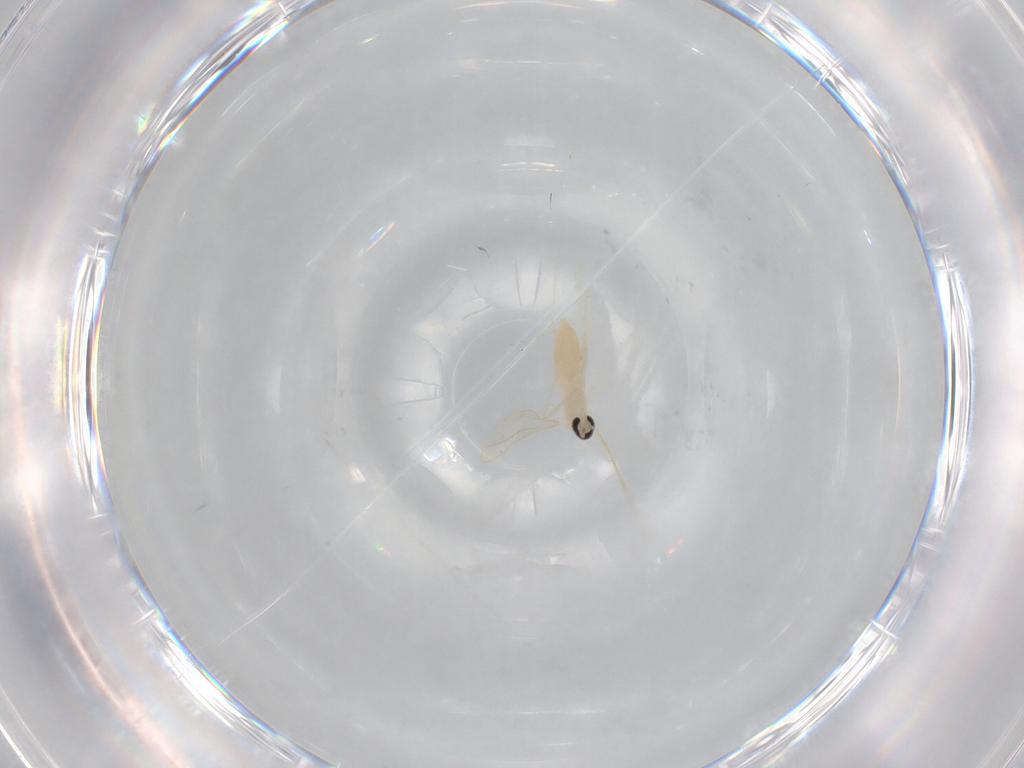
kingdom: Animalia
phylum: Arthropoda
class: Insecta
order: Diptera
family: Cecidomyiidae
